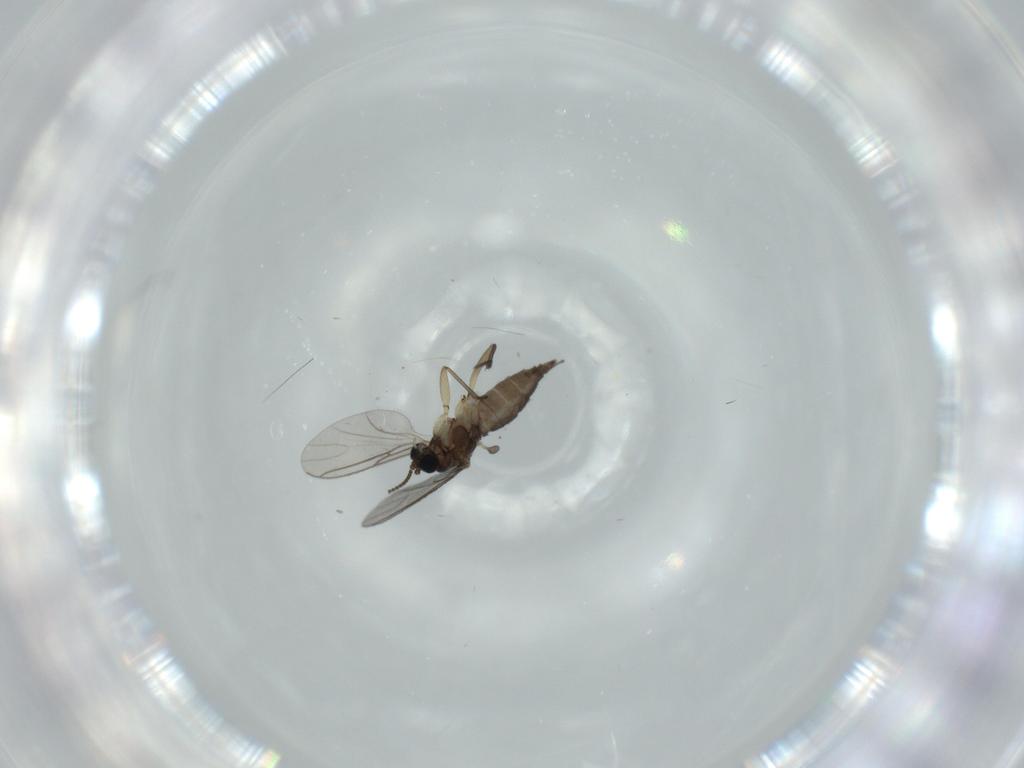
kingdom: Animalia
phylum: Arthropoda
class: Insecta
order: Diptera
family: Sciaridae
